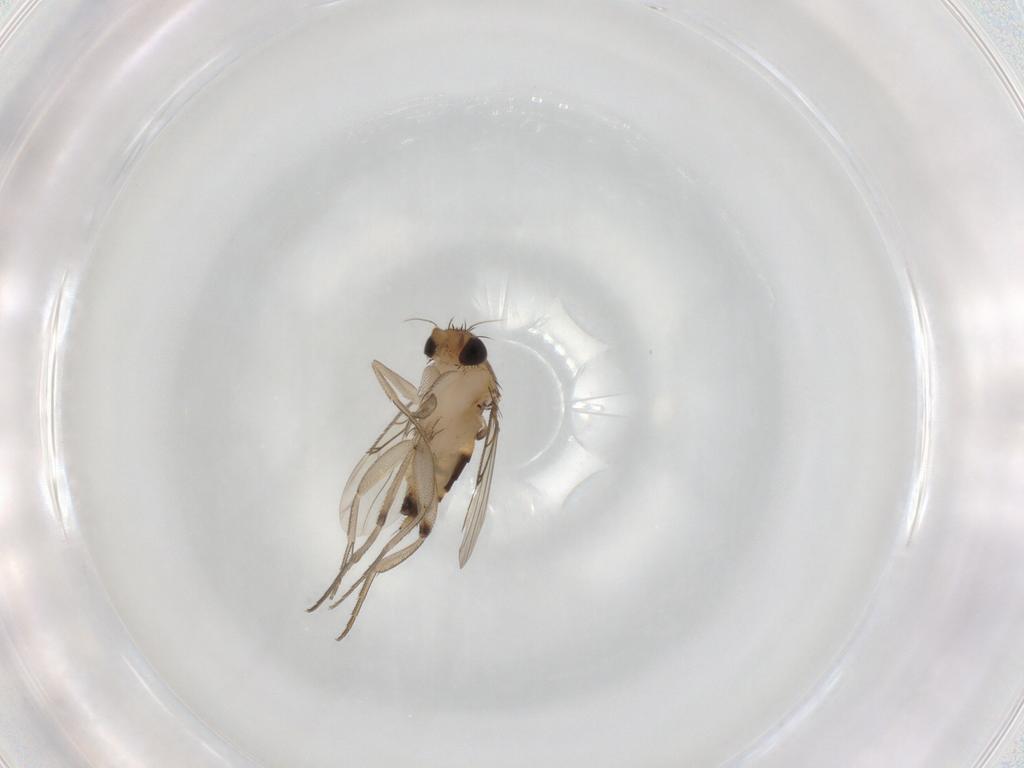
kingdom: Animalia
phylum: Arthropoda
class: Insecta
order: Diptera
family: Phoridae
